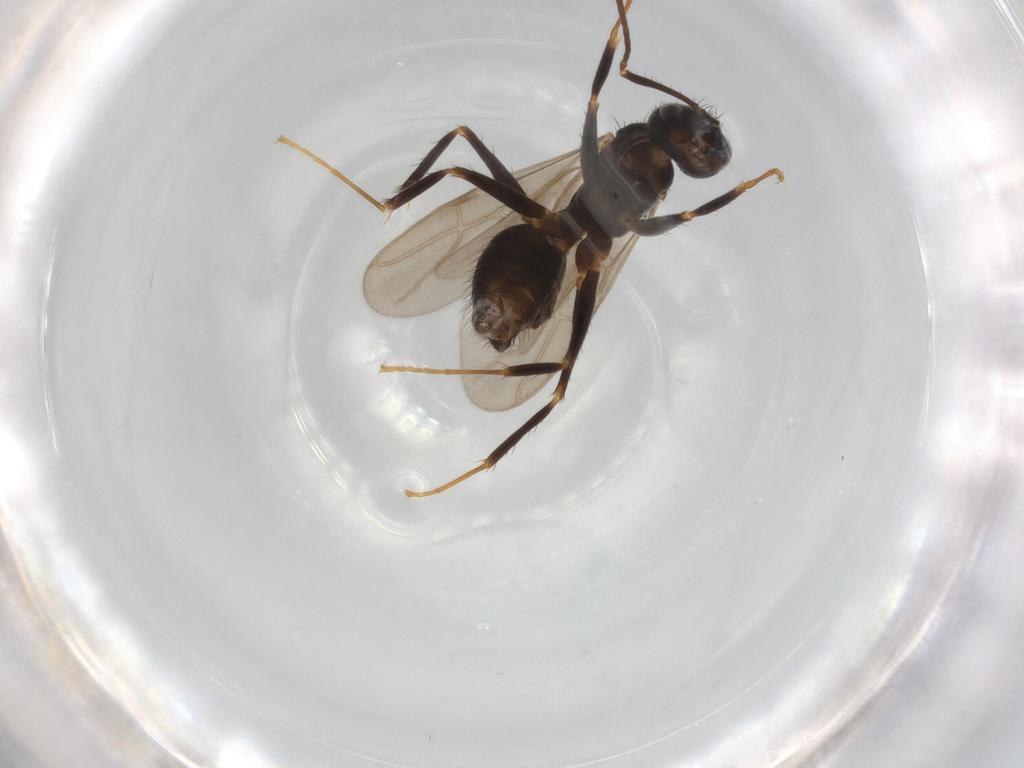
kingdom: Animalia
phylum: Arthropoda
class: Insecta
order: Hymenoptera
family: Formicidae
